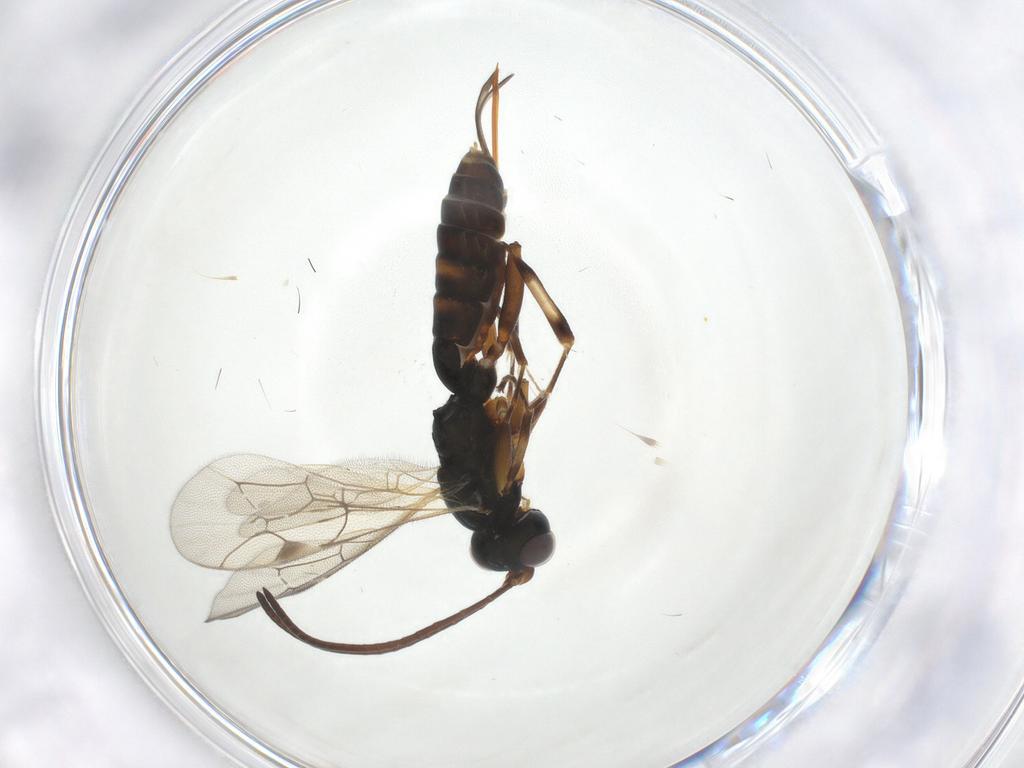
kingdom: Animalia
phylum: Arthropoda
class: Insecta
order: Hymenoptera
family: Ichneumonidae
